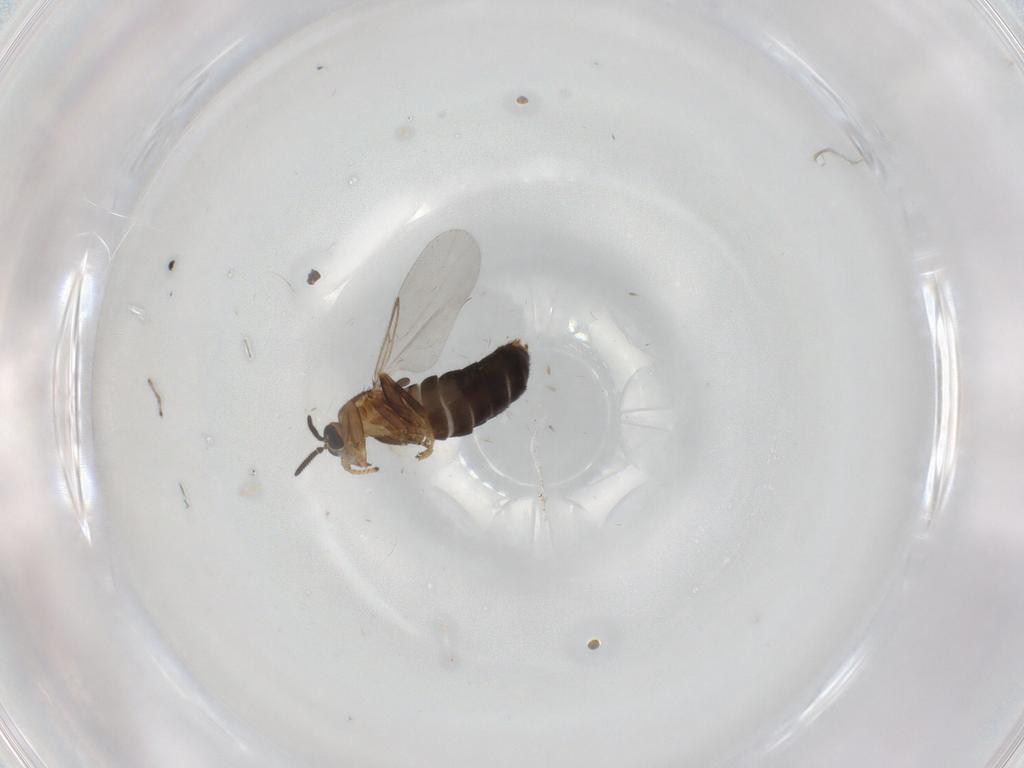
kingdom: Animalia
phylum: Arthropoda
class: Insecta
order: Diptera
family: Scatopsidae
